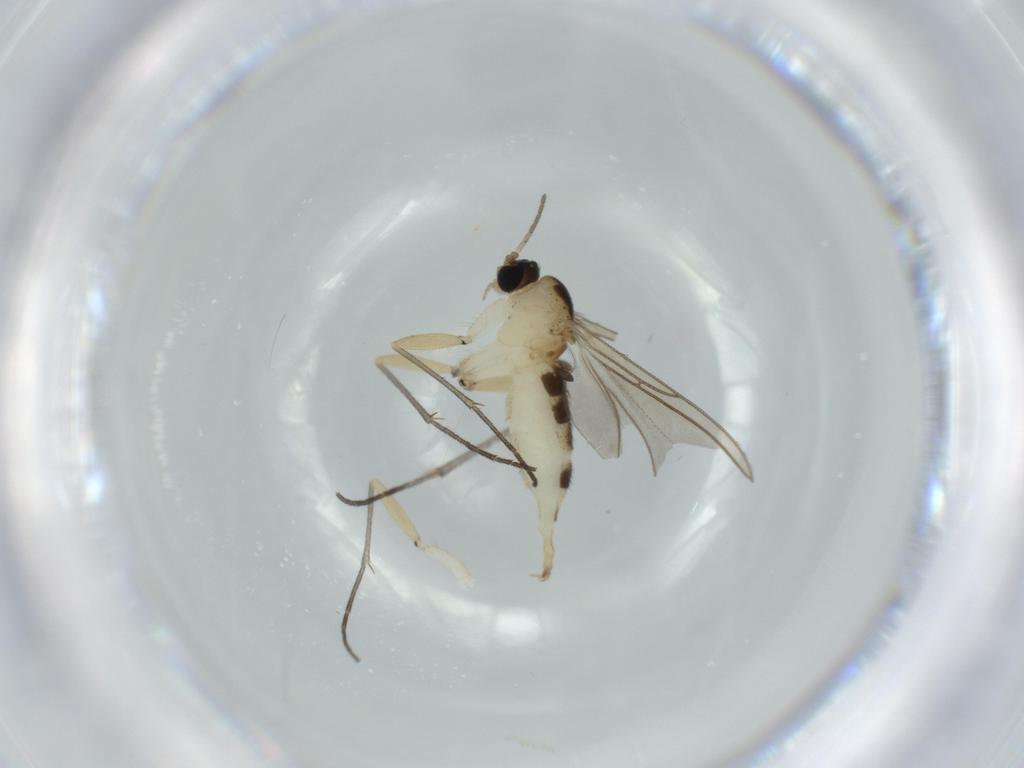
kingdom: Animalia
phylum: Arthropoda
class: Insecta
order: Diptera
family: Sciaridae
